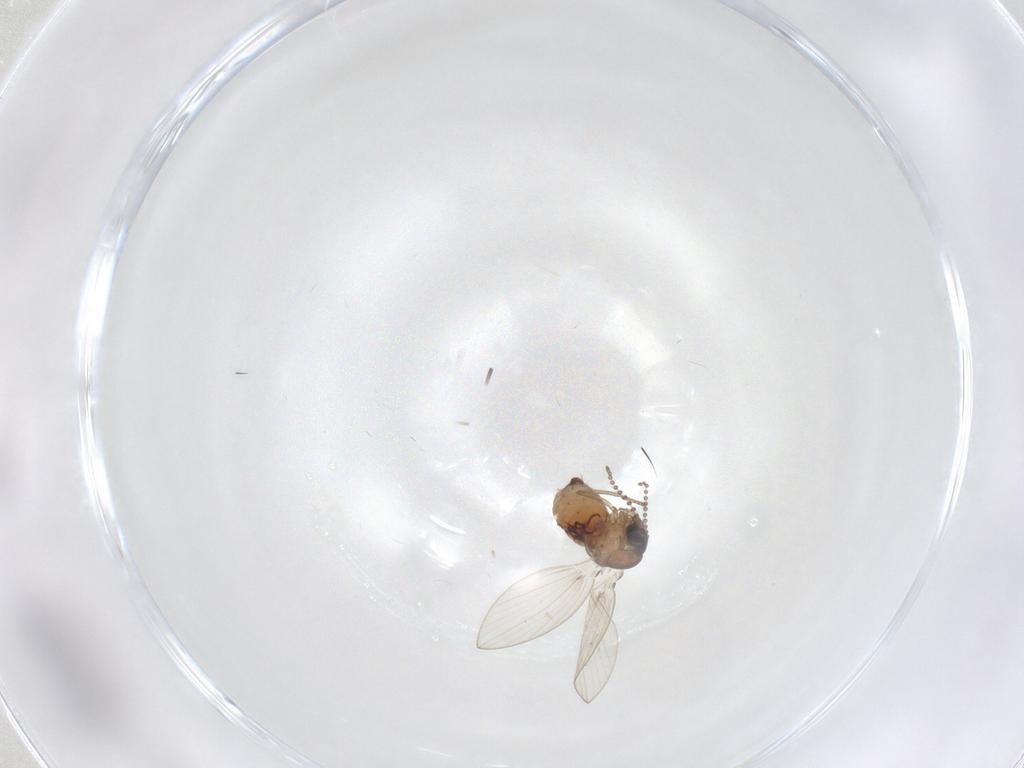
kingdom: Animalia
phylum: Arthropoda
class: Insecta
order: Diptera
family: Psychodidae
